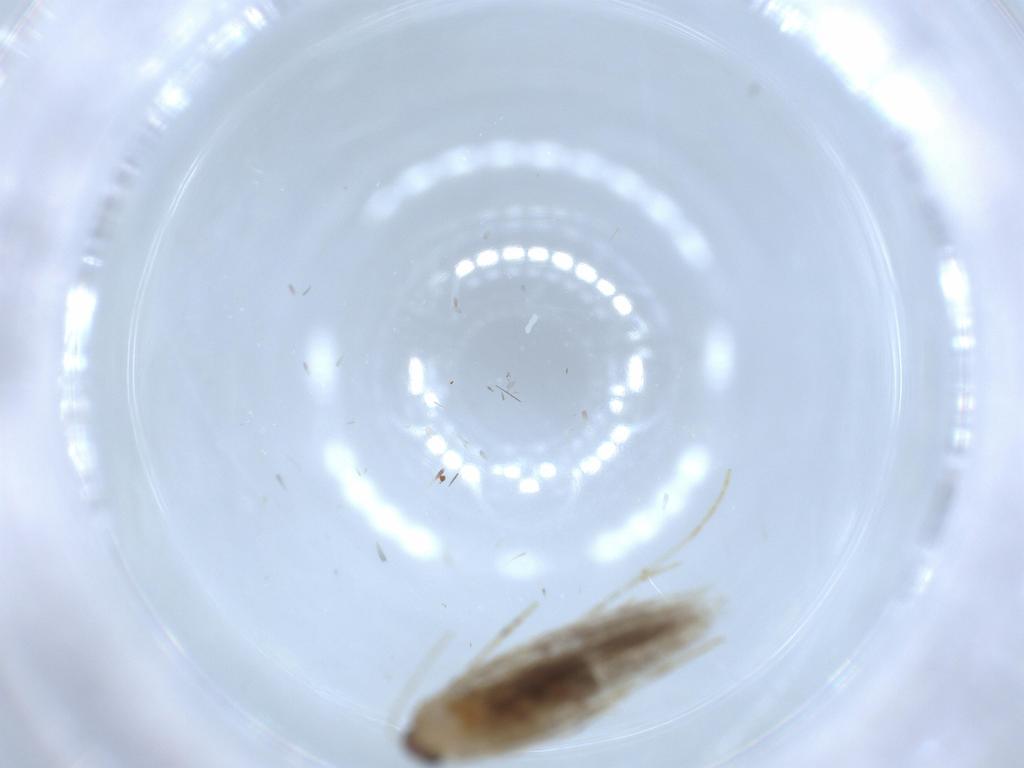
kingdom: Animalia
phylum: Arthropoda
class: Insecta
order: Lepidoptera
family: Tineidae
